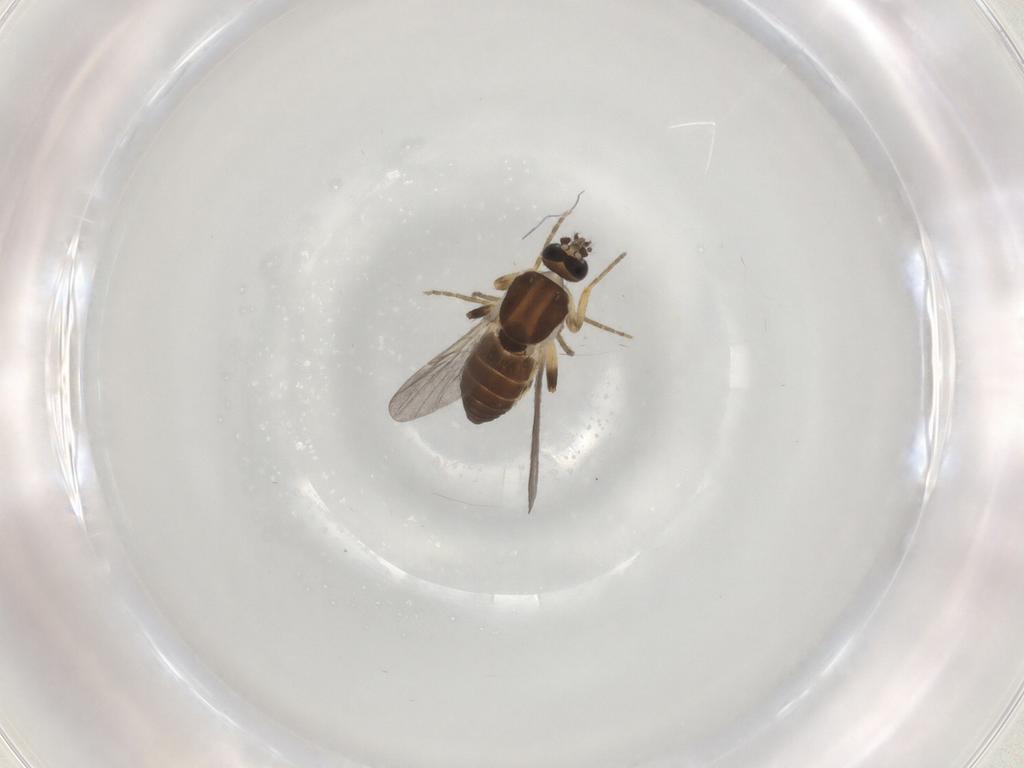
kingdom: Animalia
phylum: Arthropoda
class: Insecta
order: Diptera
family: Ceratopogonidae
